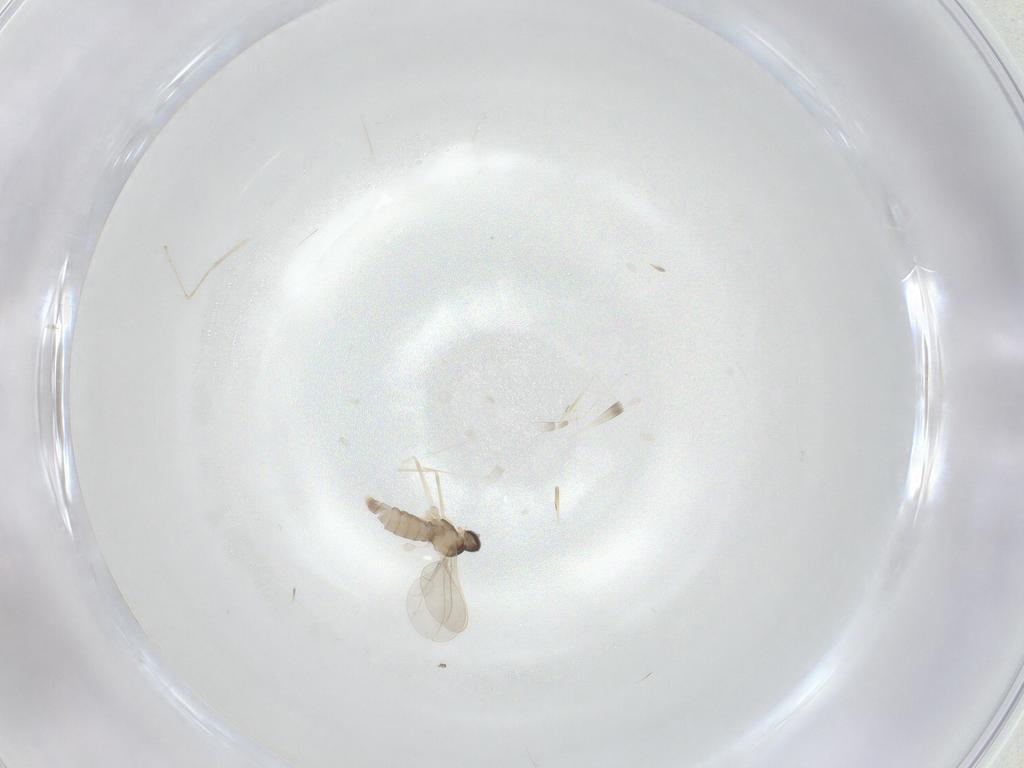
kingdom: Animalia
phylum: Arthropoda
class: Insecta
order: Diptera
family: Cecidomyiidae
